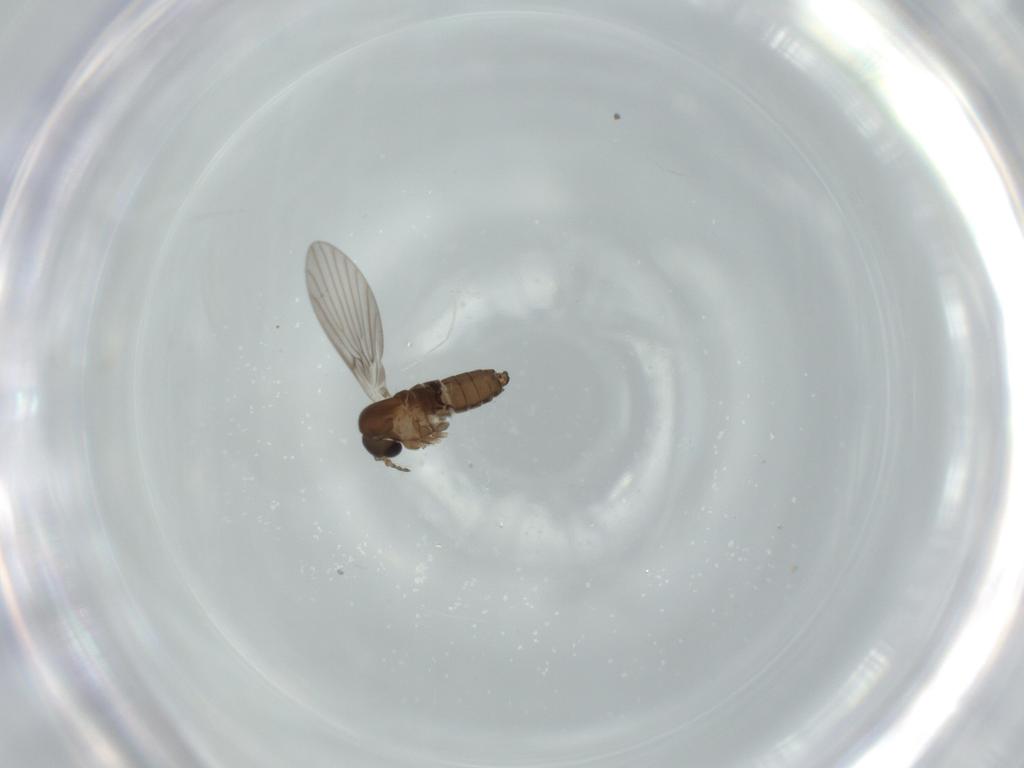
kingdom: Animalia
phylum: Arthropoda
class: Insecta
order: Diptera
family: Psychodidae
